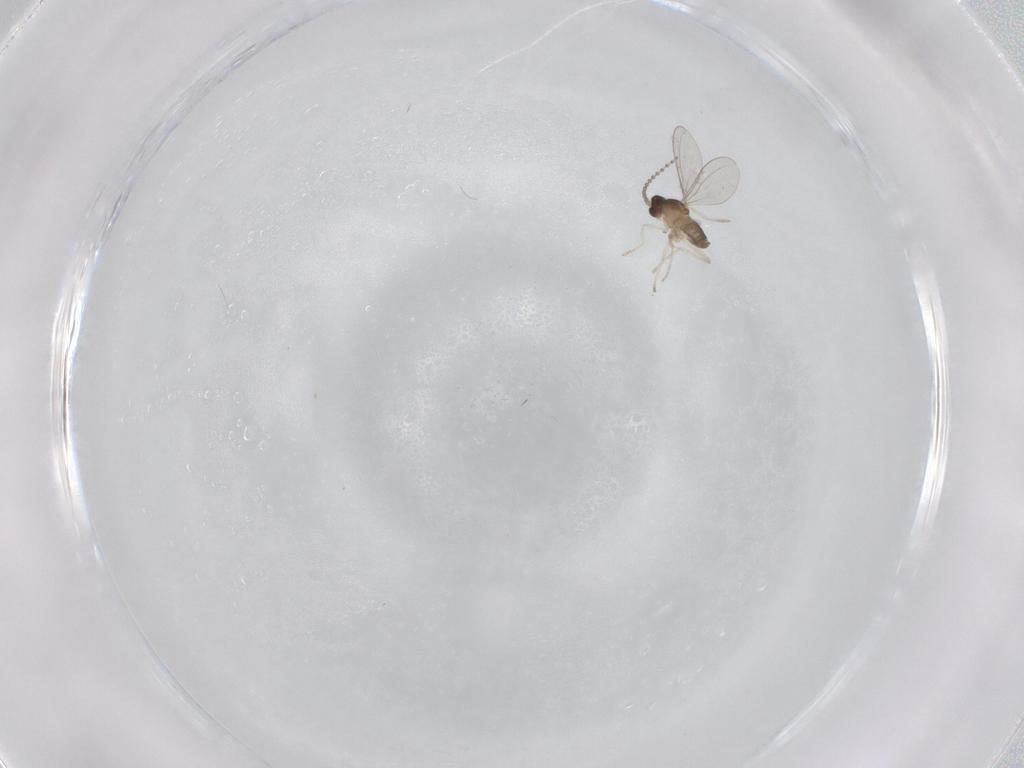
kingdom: Animalia
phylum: Arthropoda
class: Insecta
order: Diptera
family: Cecidomyiidae
